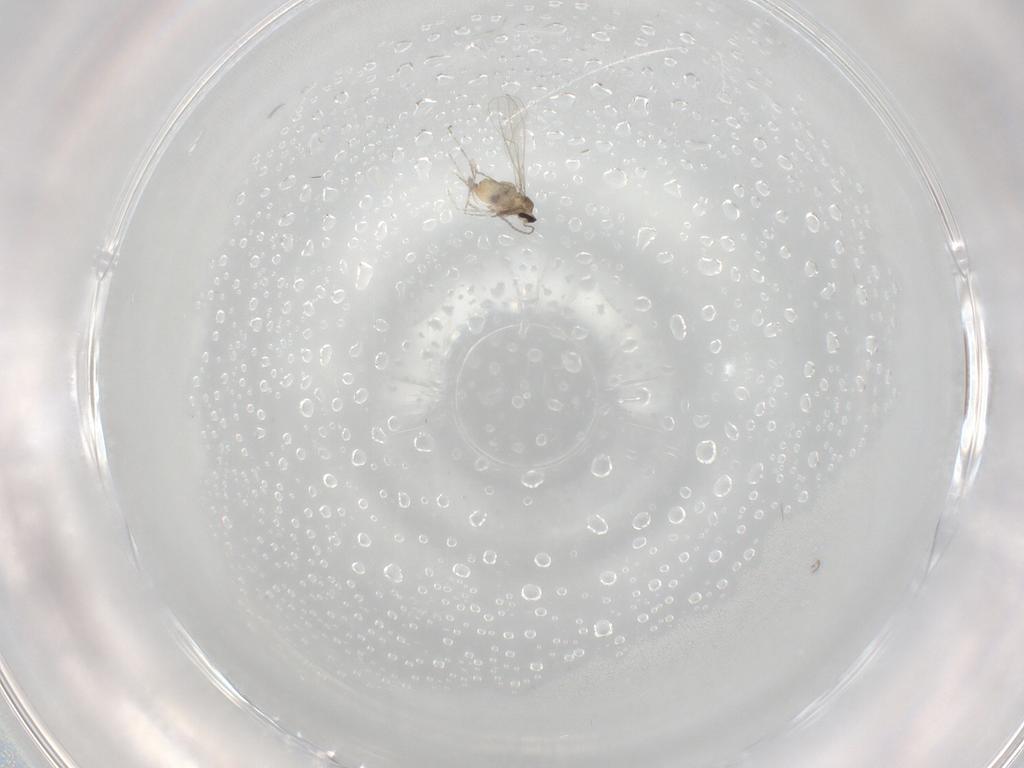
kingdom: Animalia
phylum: Arthropoda
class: Insecta
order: Diptera
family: Cecidomyiidae
